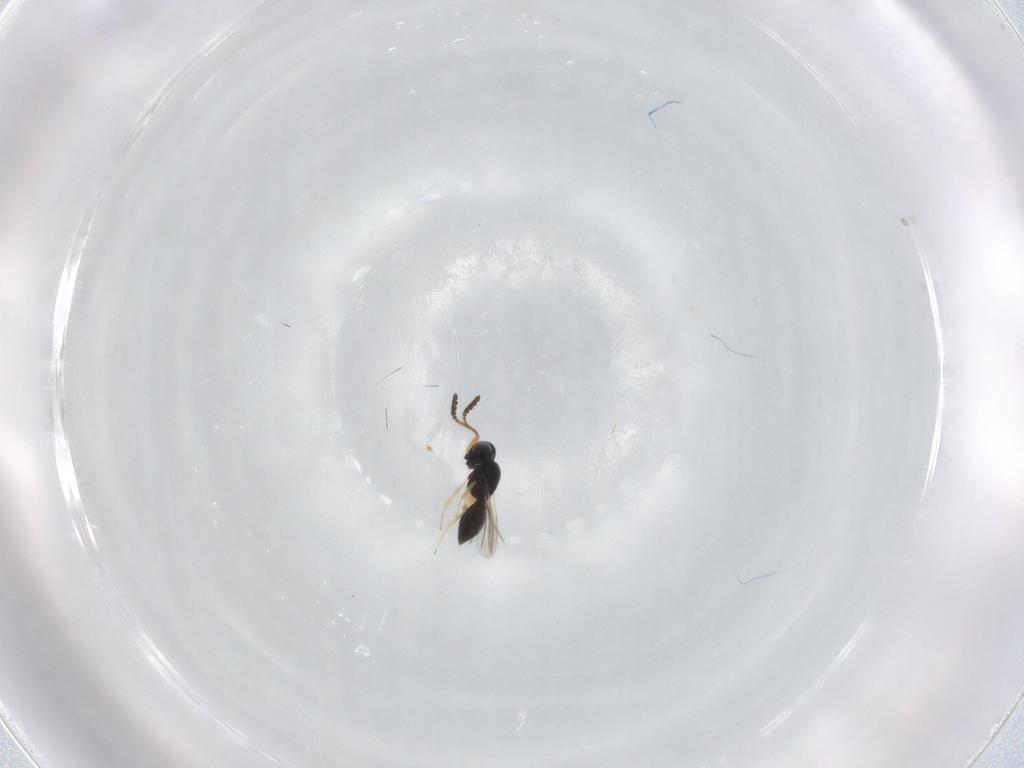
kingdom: Animalia
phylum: Arthropoda
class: Insecta
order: Hymenoptera
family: Scelionidae
